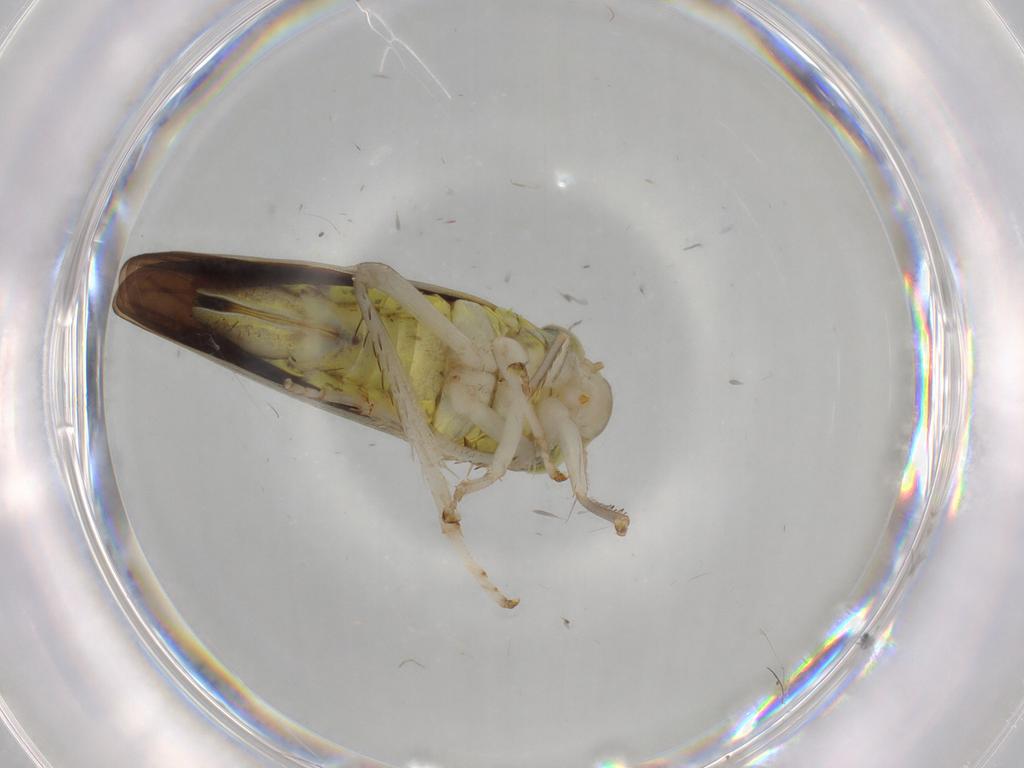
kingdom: Animalia
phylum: Arthropoda
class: Insecta
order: Hemiptera
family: Cicadellidae
